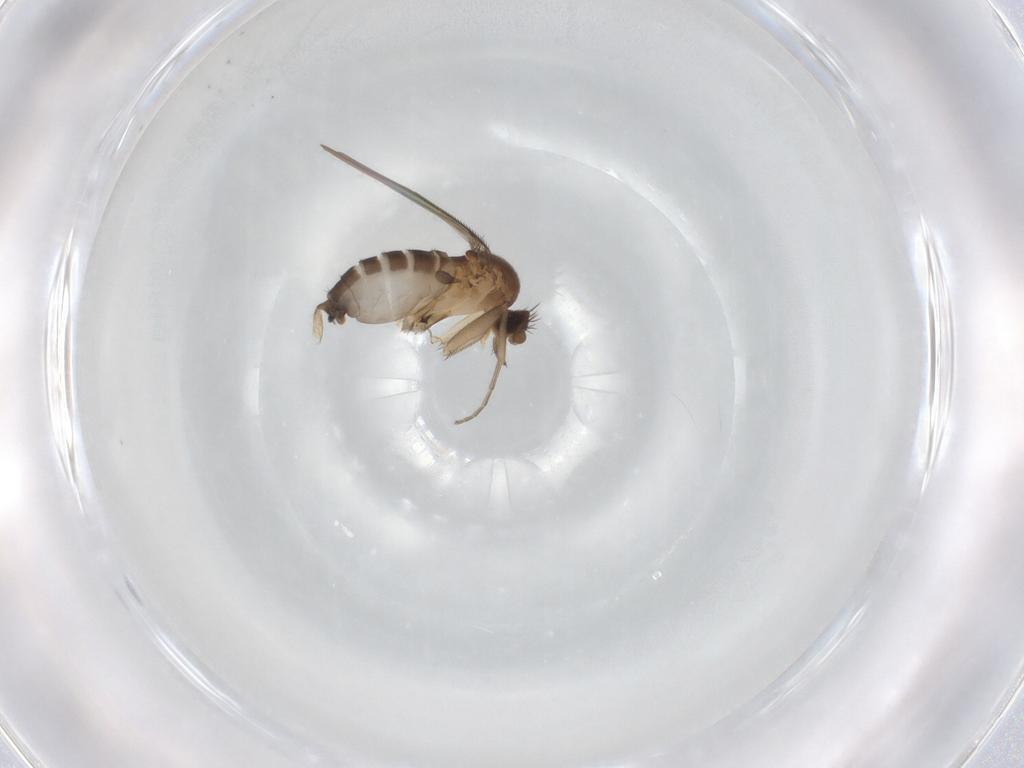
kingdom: Animalia
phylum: Arthropoda
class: Insecta
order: Diptera
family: Phoridae
